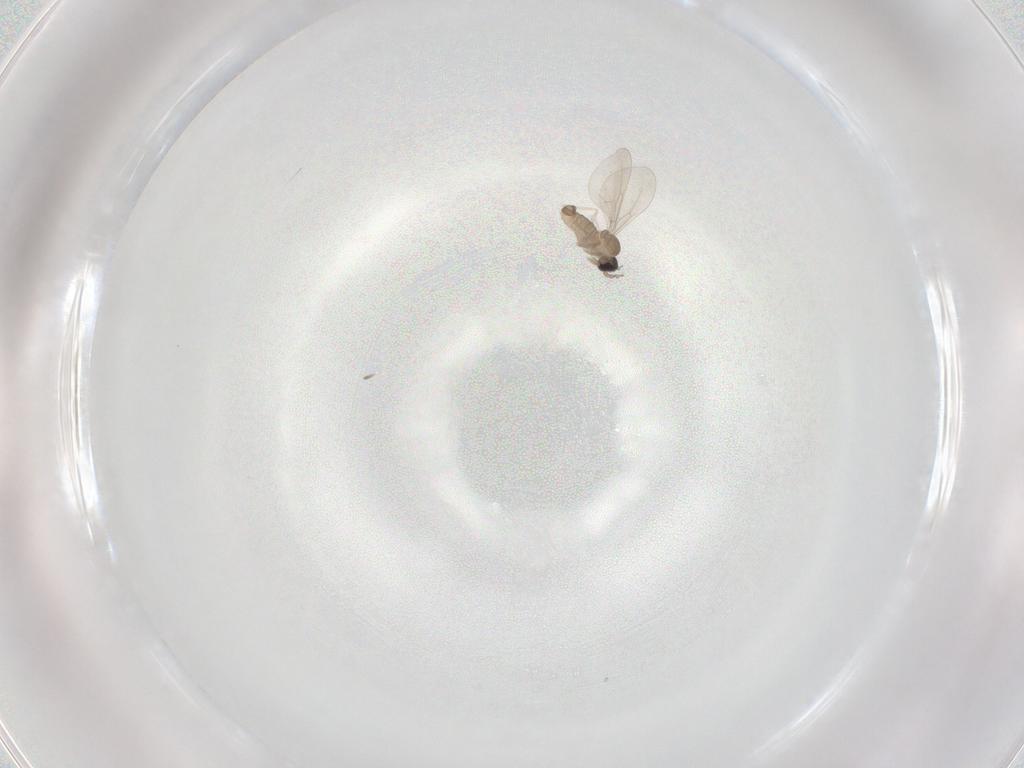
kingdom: Animalia
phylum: Arthropoda
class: Insecta
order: Diptera
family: Cecidomyiidae
